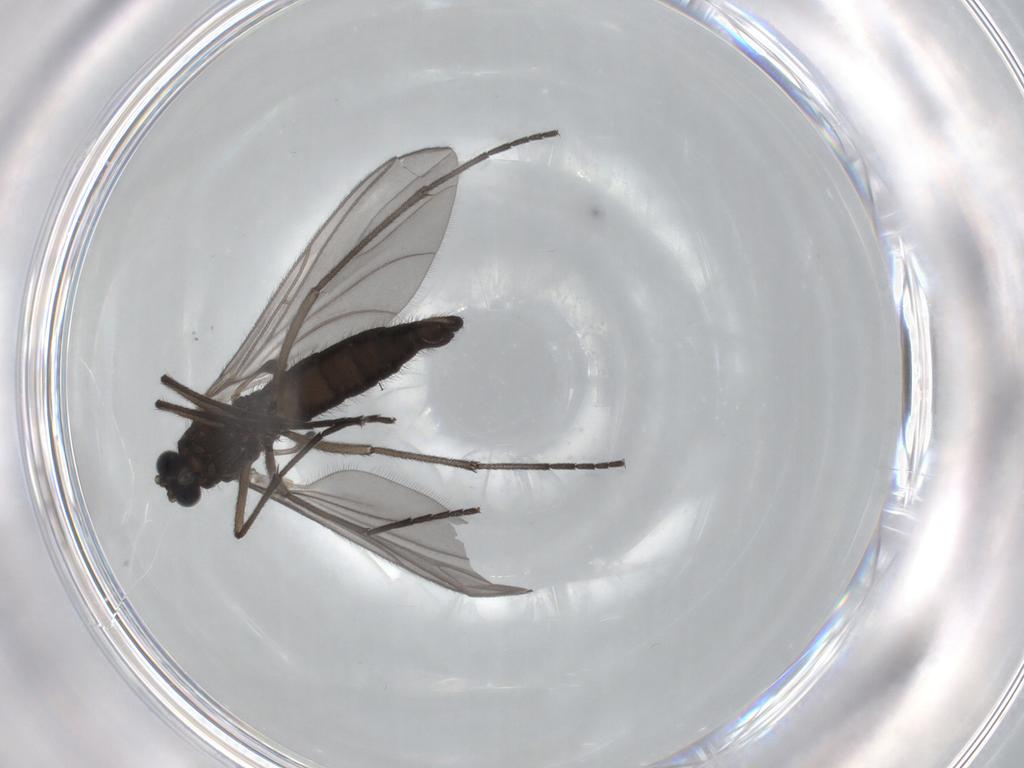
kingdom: Animalia
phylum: Arthropoda
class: Insecta
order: Diptera
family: Sciaridae
